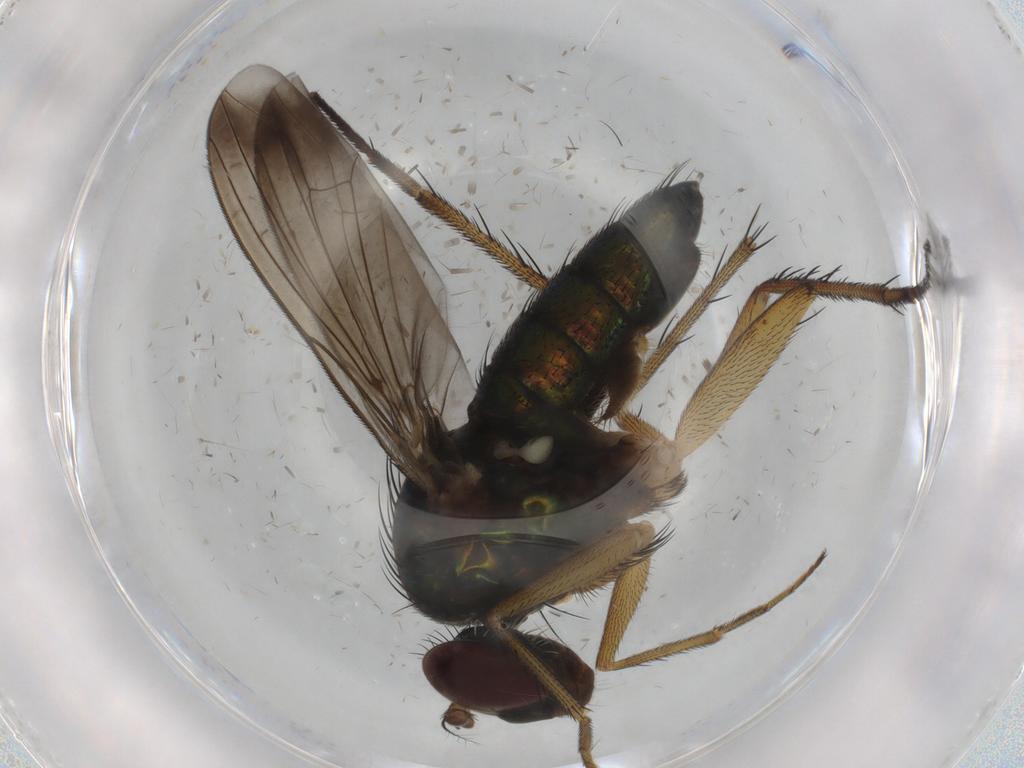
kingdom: Animalia
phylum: Arthropoda
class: Insecta
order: Diptera
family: Dolichopodidae
